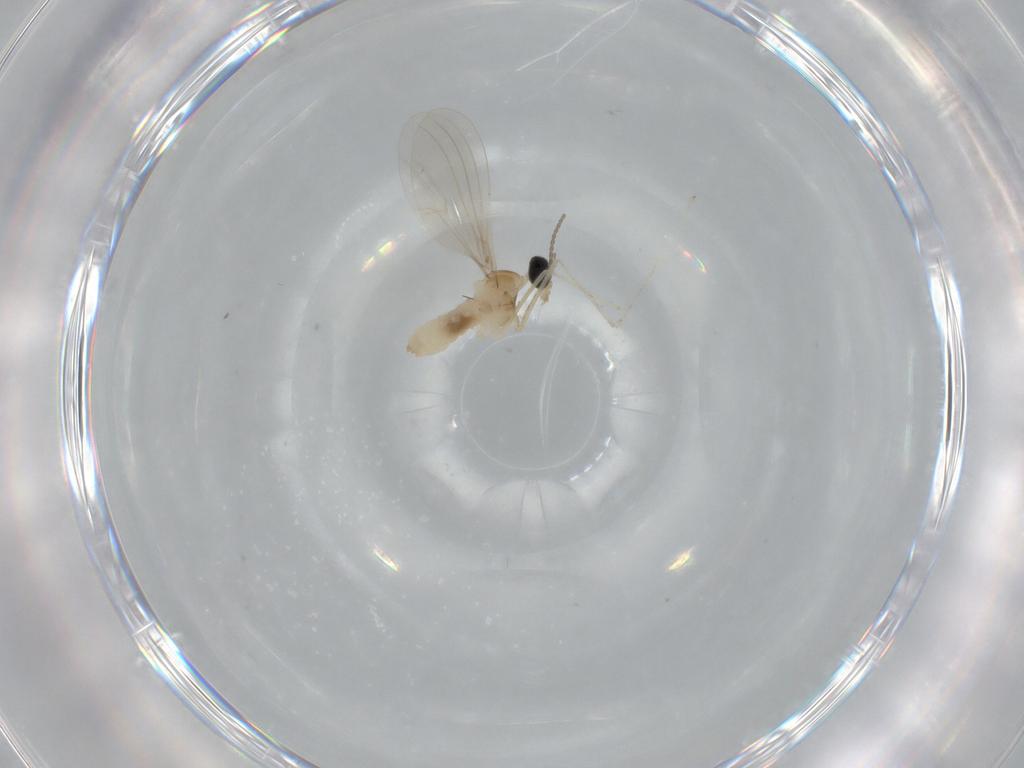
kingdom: Animalia
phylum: Arthropoda
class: Insecta
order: Diptera
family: Cecidomyiidae
